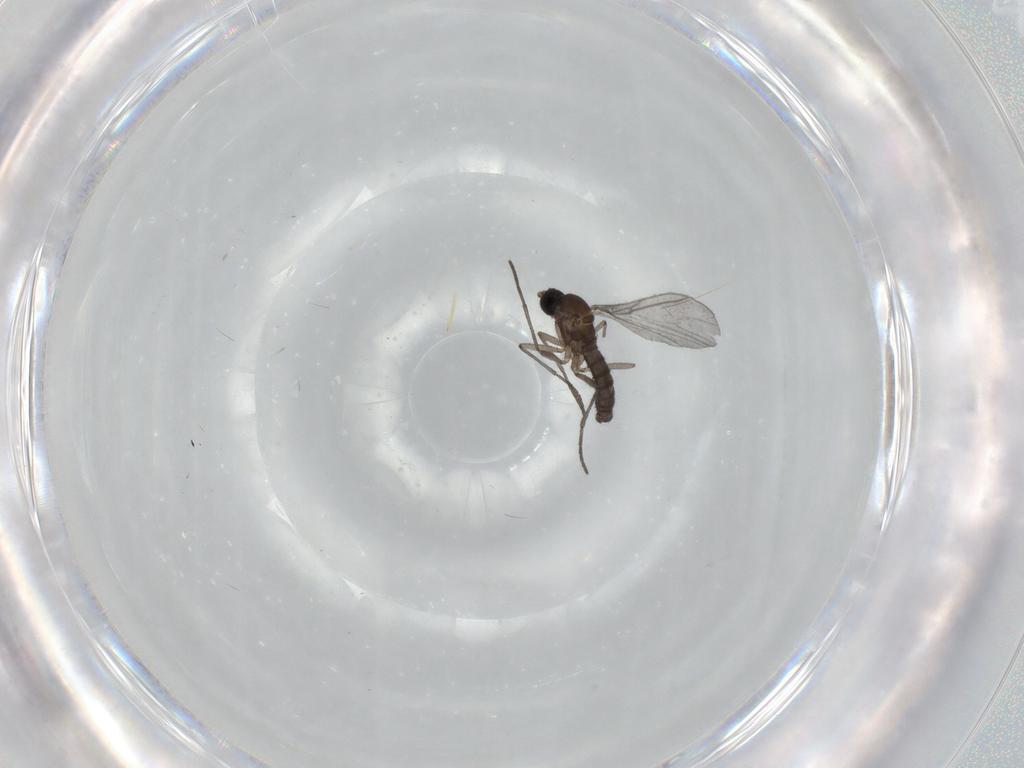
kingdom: Animalia
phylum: Arthropoda
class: Insecta
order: Diptera
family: Sciaridae
